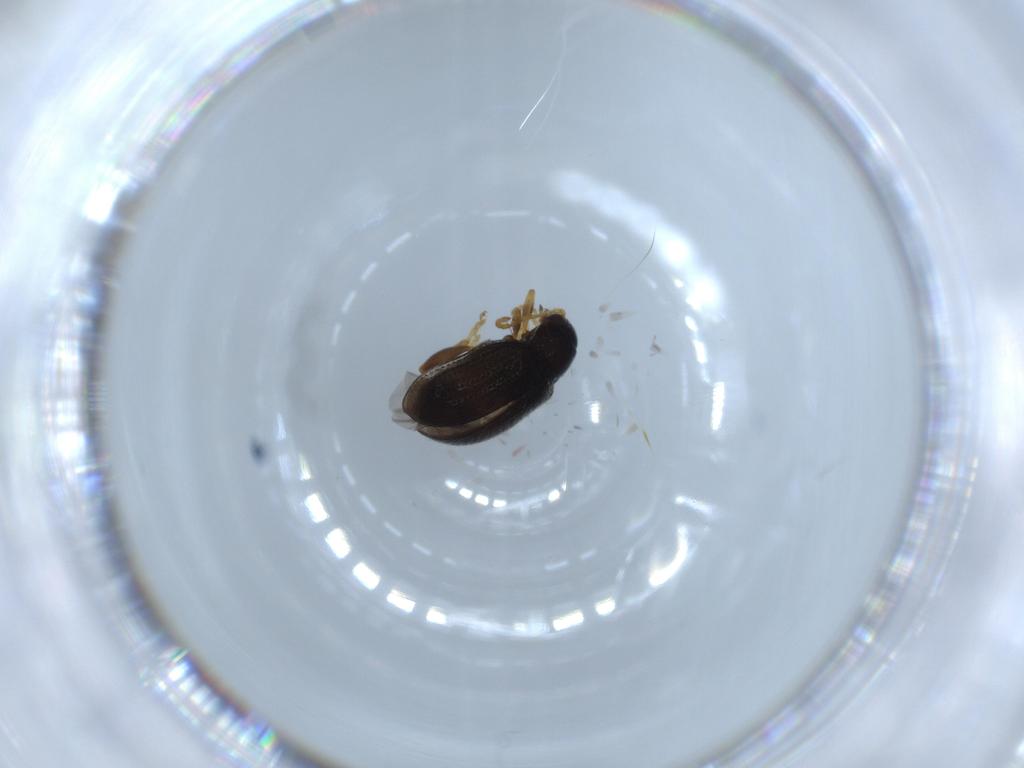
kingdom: Animalia
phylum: Arthropoda
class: Insecta
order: Coleoptera
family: Chrysomelidae
